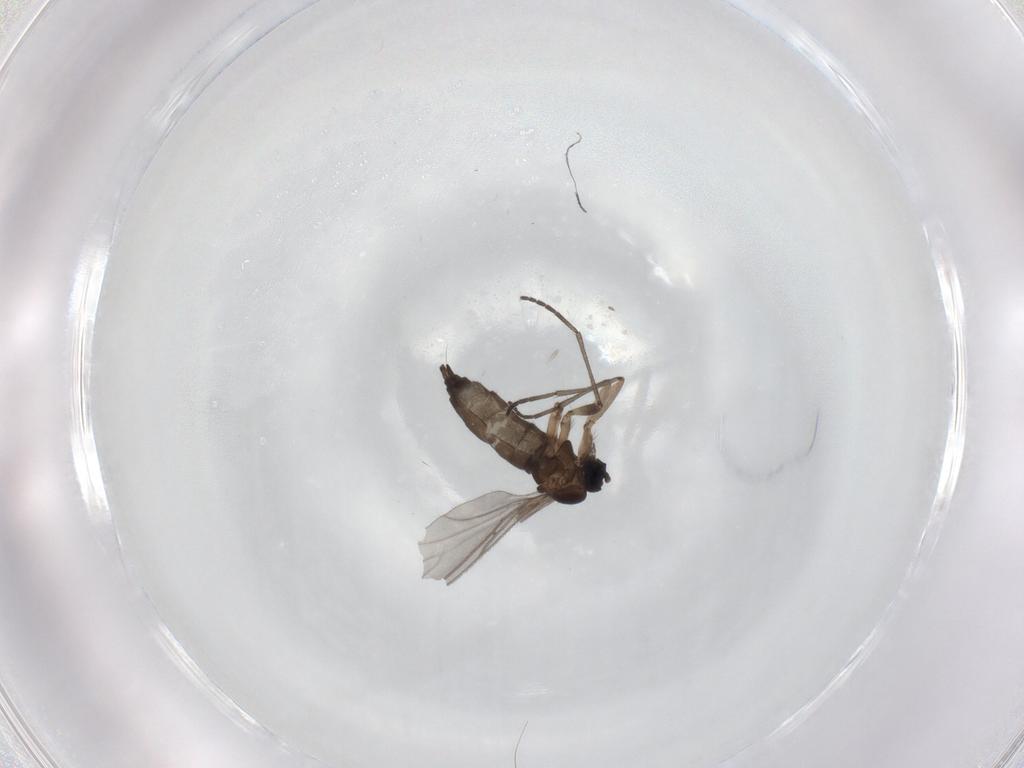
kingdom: Animalia
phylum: Arthropoda
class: Insecta
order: Diptera
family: Sciaridae
